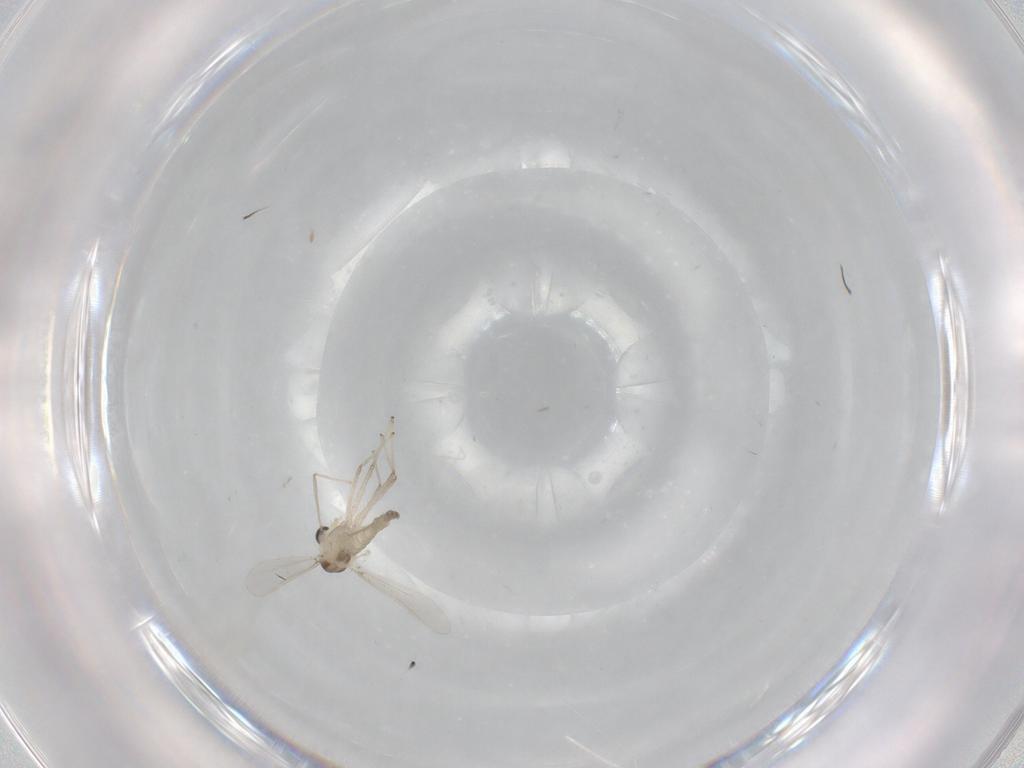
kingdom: Animalia
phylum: Arthropoda
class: Insecta
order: Diptera
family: Chironomidae
